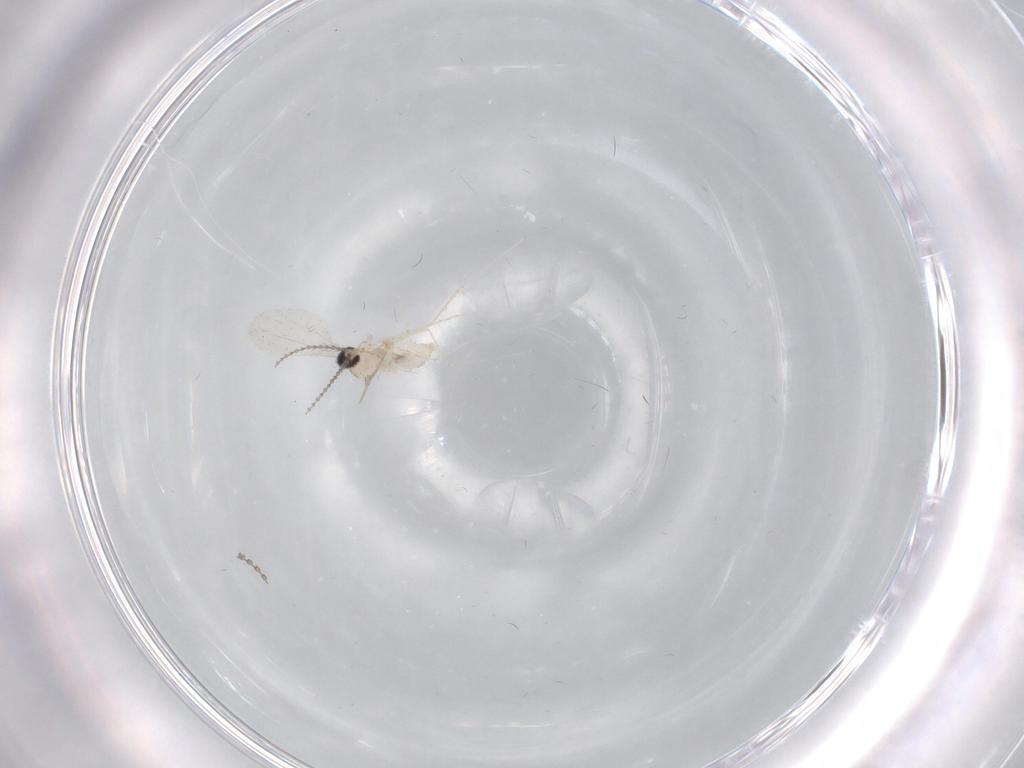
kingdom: Animalia
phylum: Arthropoda
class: Insecta
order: Diptera
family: Cecidomyiidae
